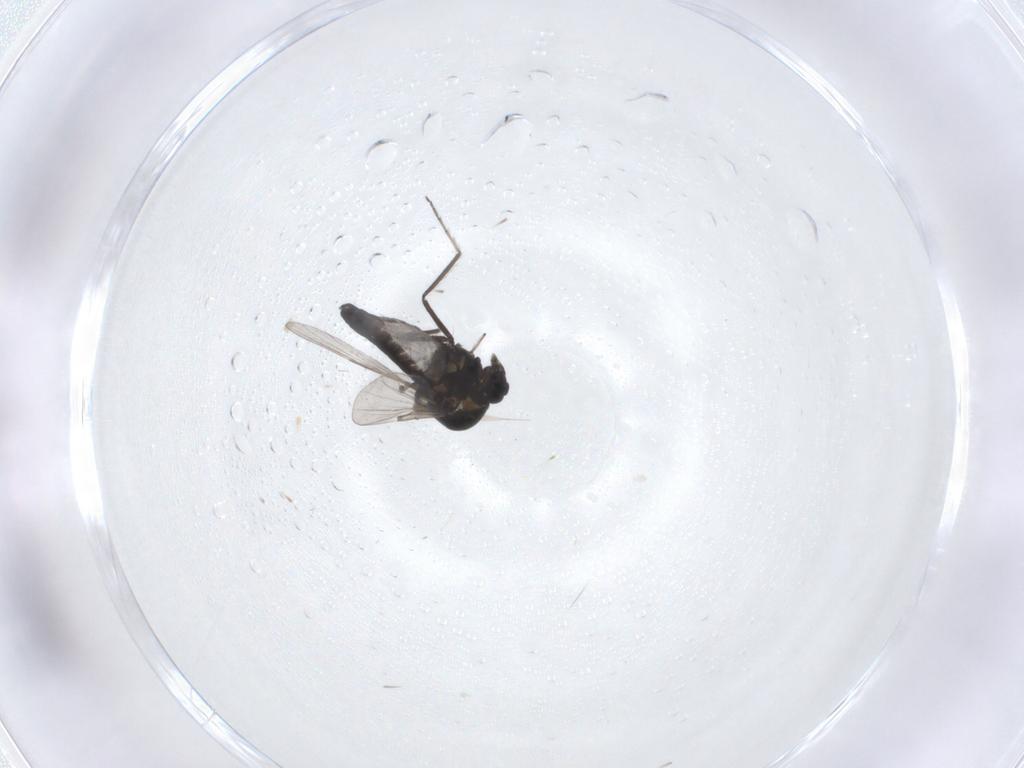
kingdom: Animalia
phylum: Arthropoda
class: Insecta
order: Diptera
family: Ceratopogonidae
